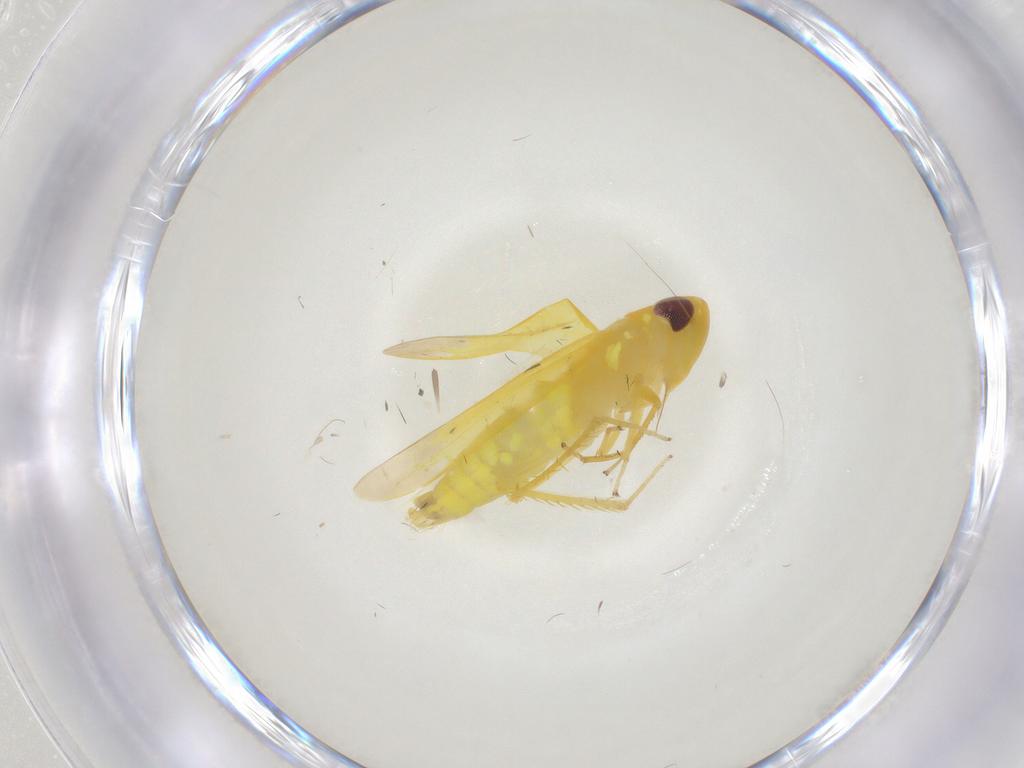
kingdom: Animalia
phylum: Arthropoda
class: Insecta
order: Hemiptera
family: Cicadellidae
